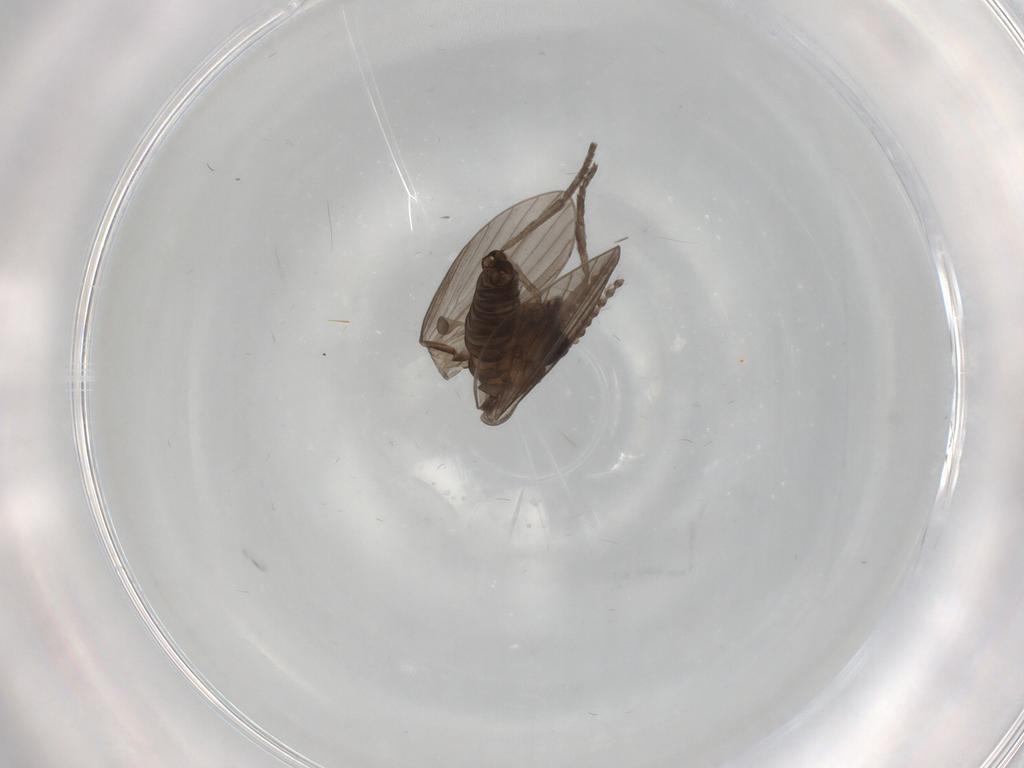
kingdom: Animalia
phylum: Arthropoda
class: Insecta
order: Diptera
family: Psychodidae
